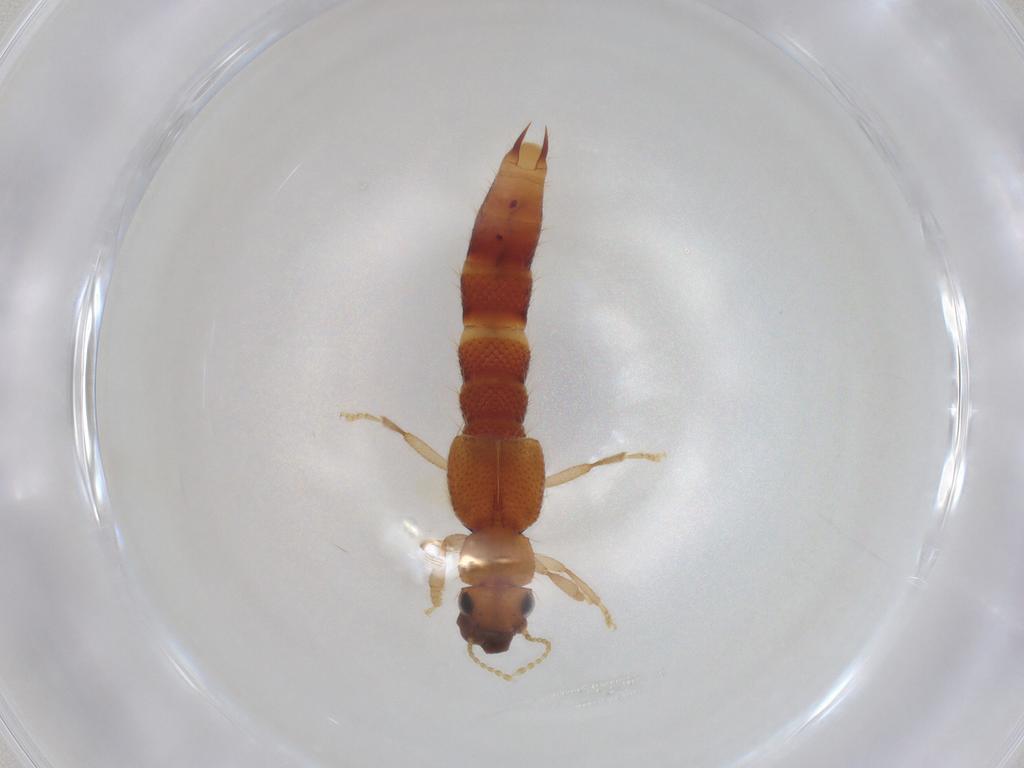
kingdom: Animalia
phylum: Arthropoda
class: Insecta
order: Coleoptera
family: Staphylinidae
